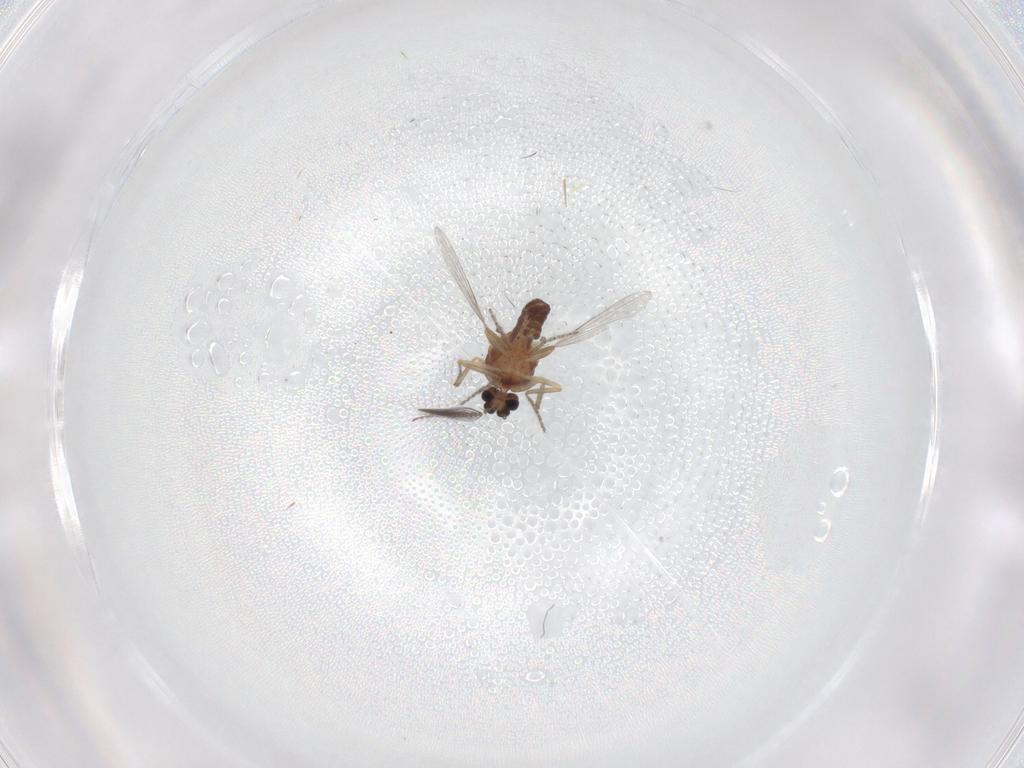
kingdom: Animalia
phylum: Arthropoda
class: Insecta
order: Diptera
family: Ceratopogonidae
